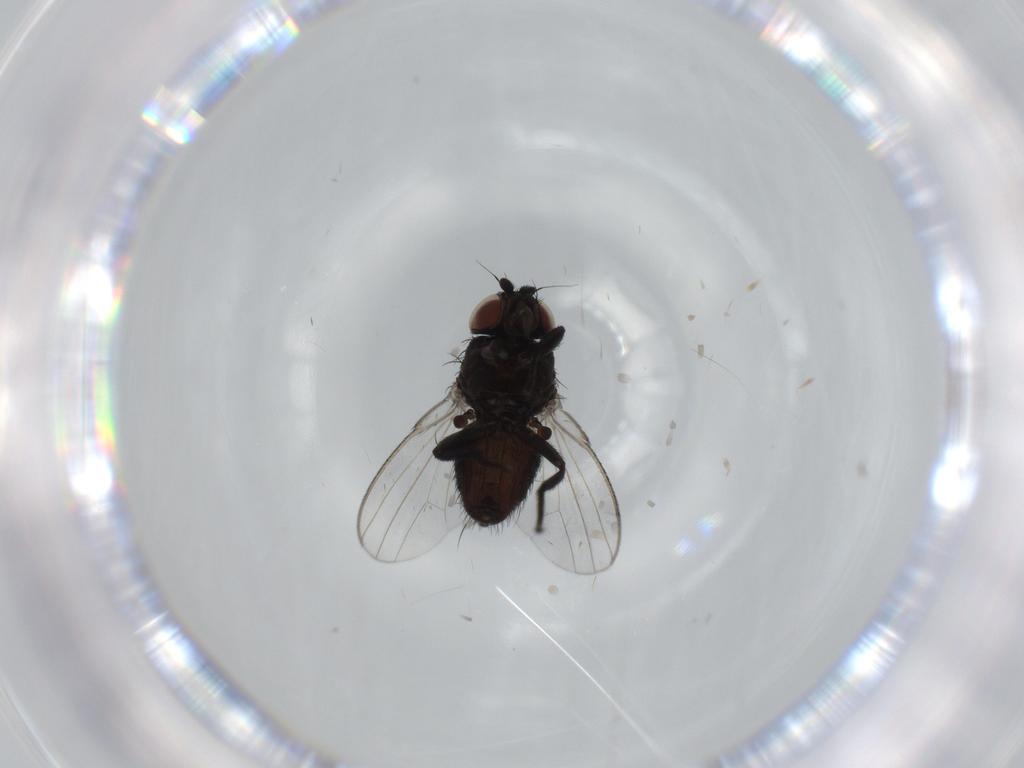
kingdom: Animalia
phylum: Arthropoda
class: Insecta
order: Diptera
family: Milichiidae
